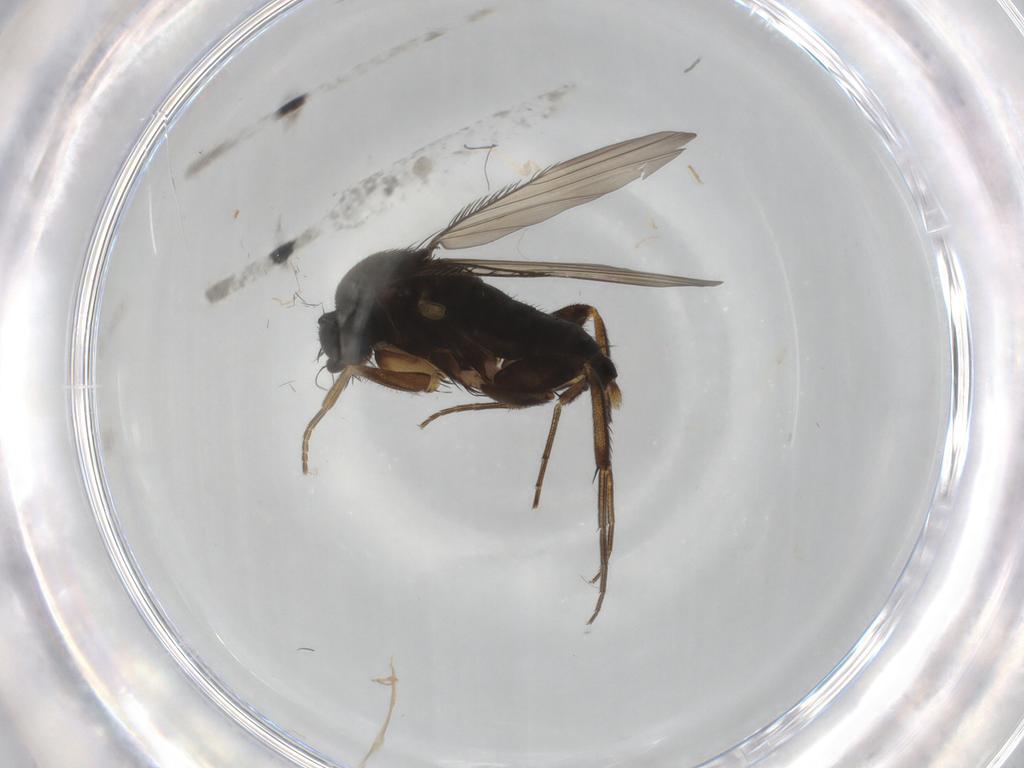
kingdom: Animalia
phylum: Arthropoda
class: Insecta
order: Diptera
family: Phoridae
